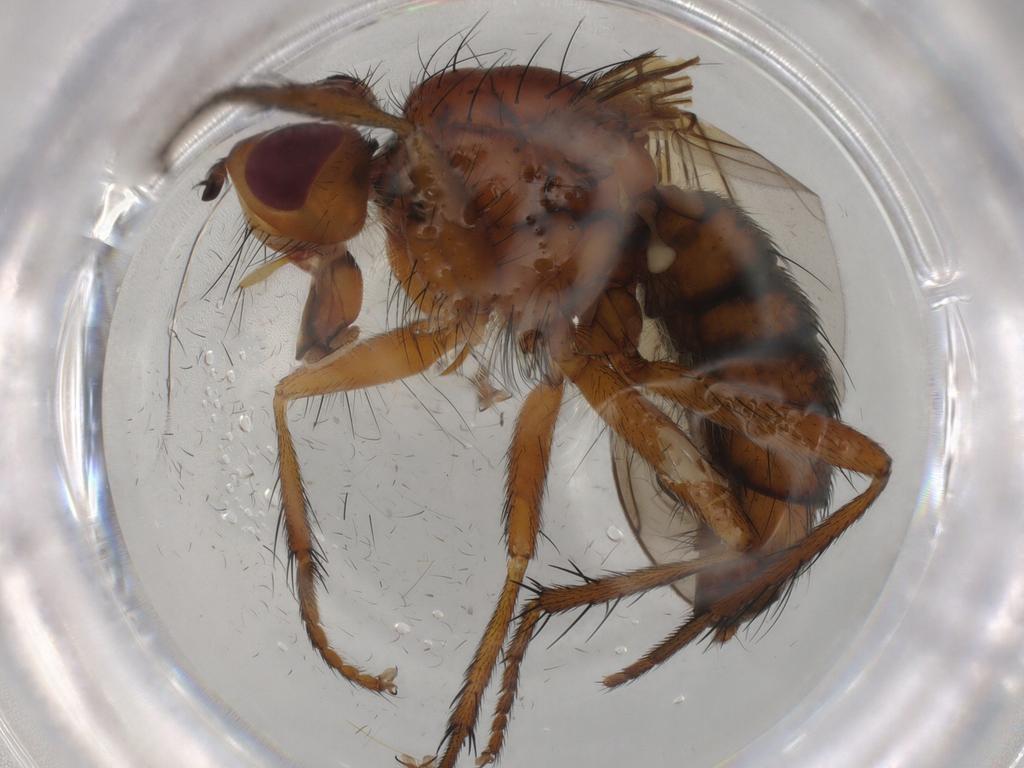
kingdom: Animalia
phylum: Arthropoda
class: Insecta
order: Diptera
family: Scathophagidae
